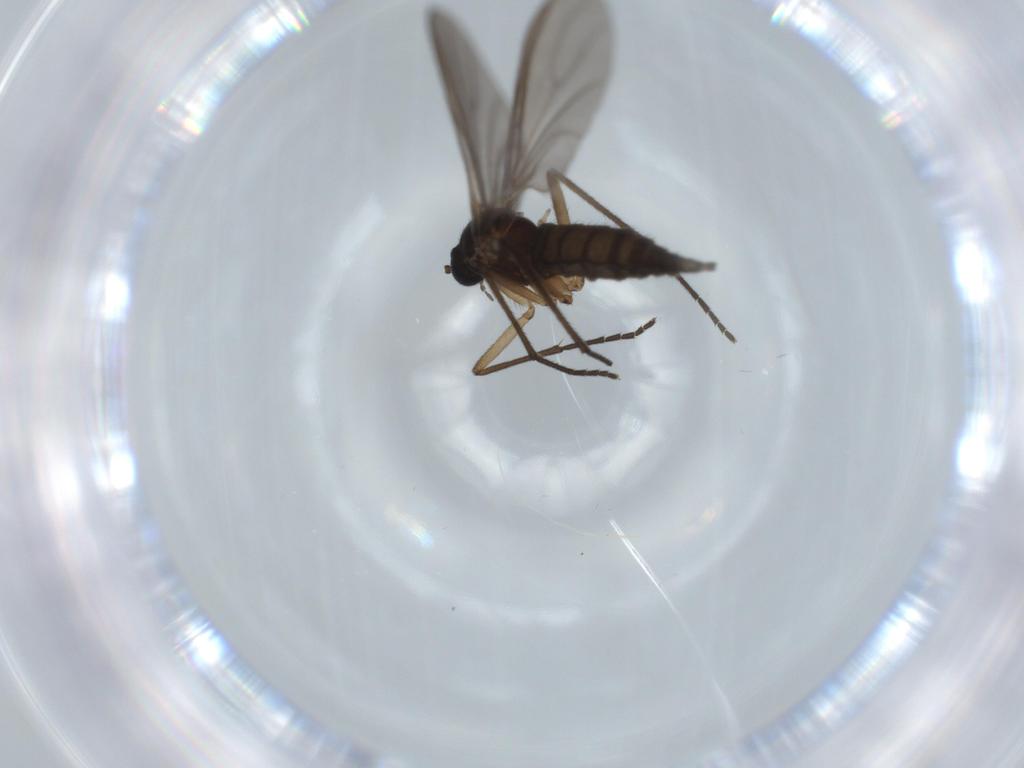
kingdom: Animalia
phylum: Arthropoda
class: Insecta
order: Diptera
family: Sciaridae
